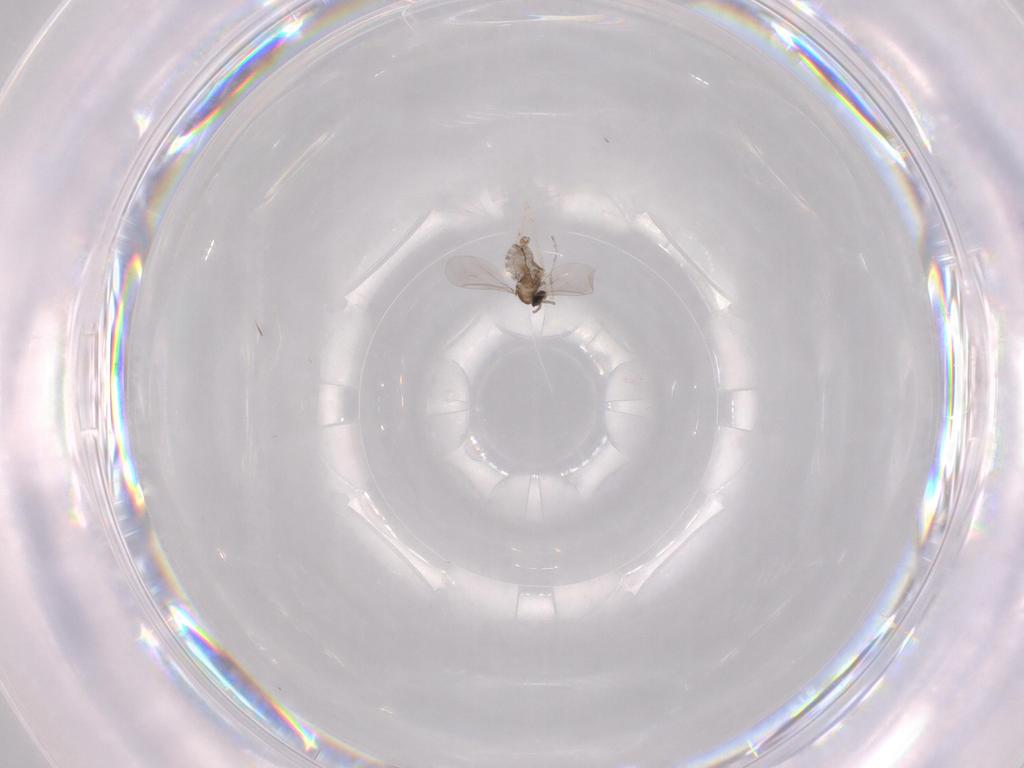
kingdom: Animalia
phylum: Arthropoda
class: Insecta
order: Diptera
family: Cecidomyiidae
